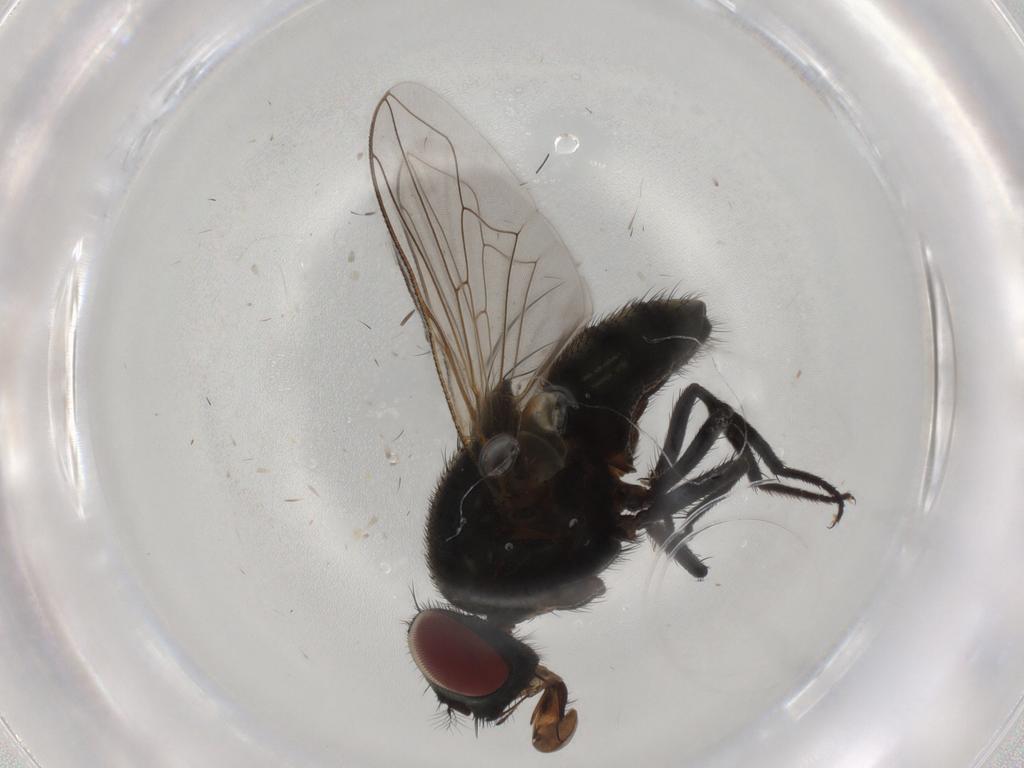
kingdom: Animalia
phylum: Arthropoda
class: Insecta
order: Diptera
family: Muscidae
